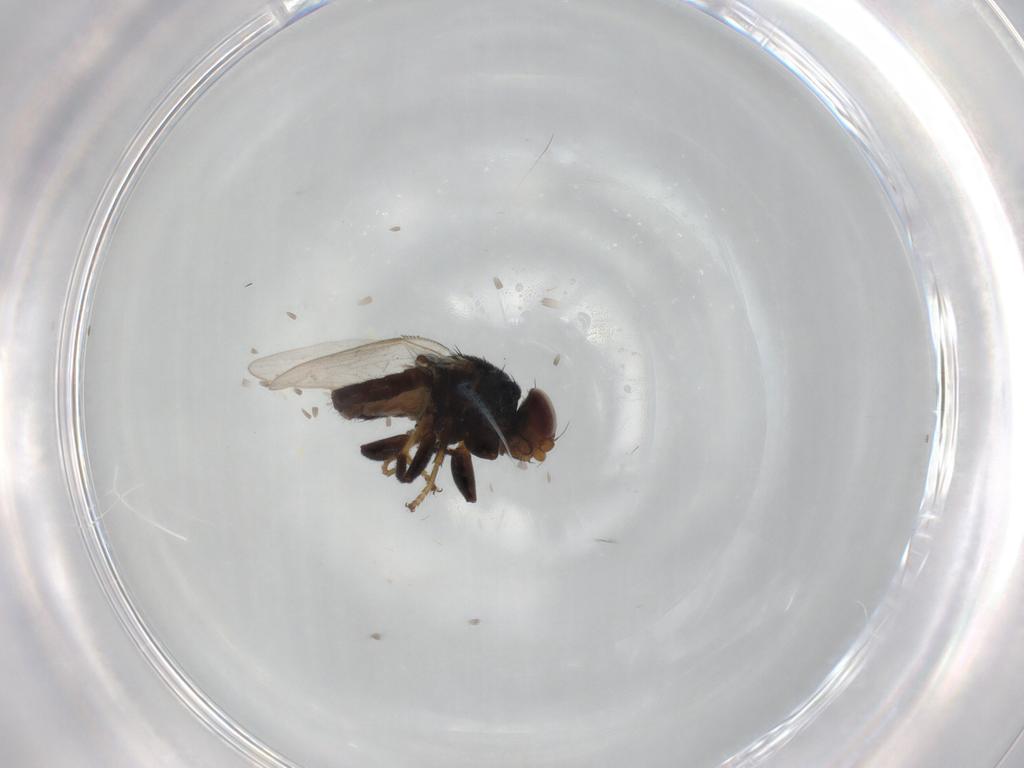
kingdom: Animalia
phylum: Arthropoda
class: Insecta
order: Diptera
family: Chloropidae
